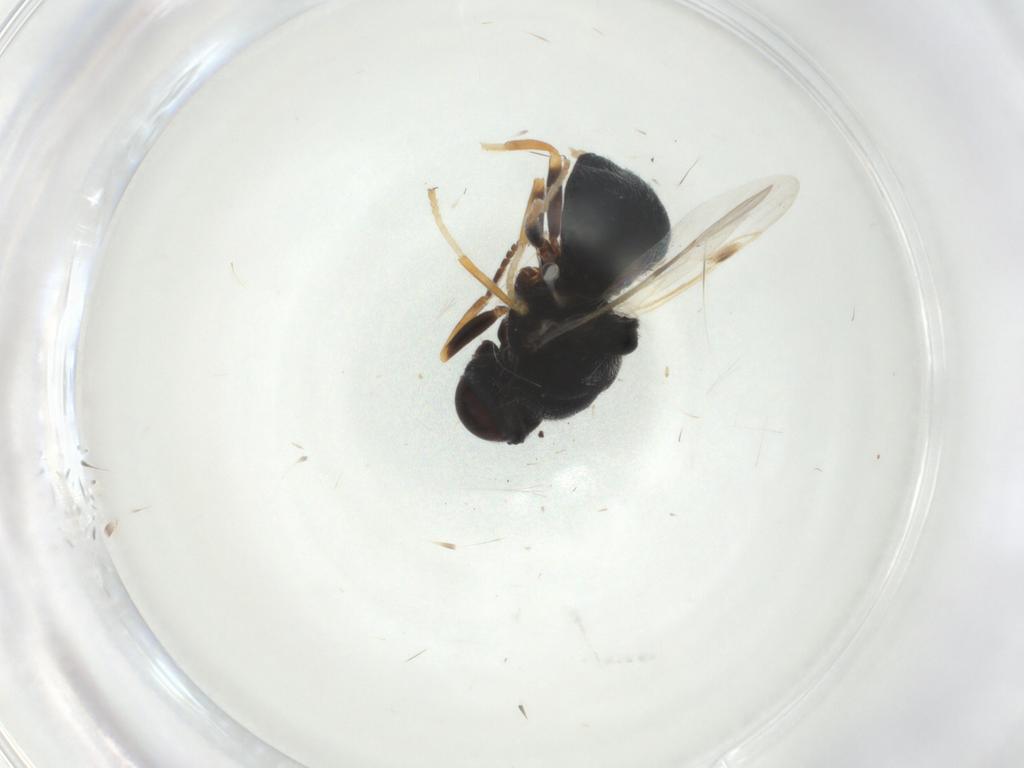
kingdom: Animalia
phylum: Arthropoda
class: Insecta
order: Diptera
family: Stratiomyidae
